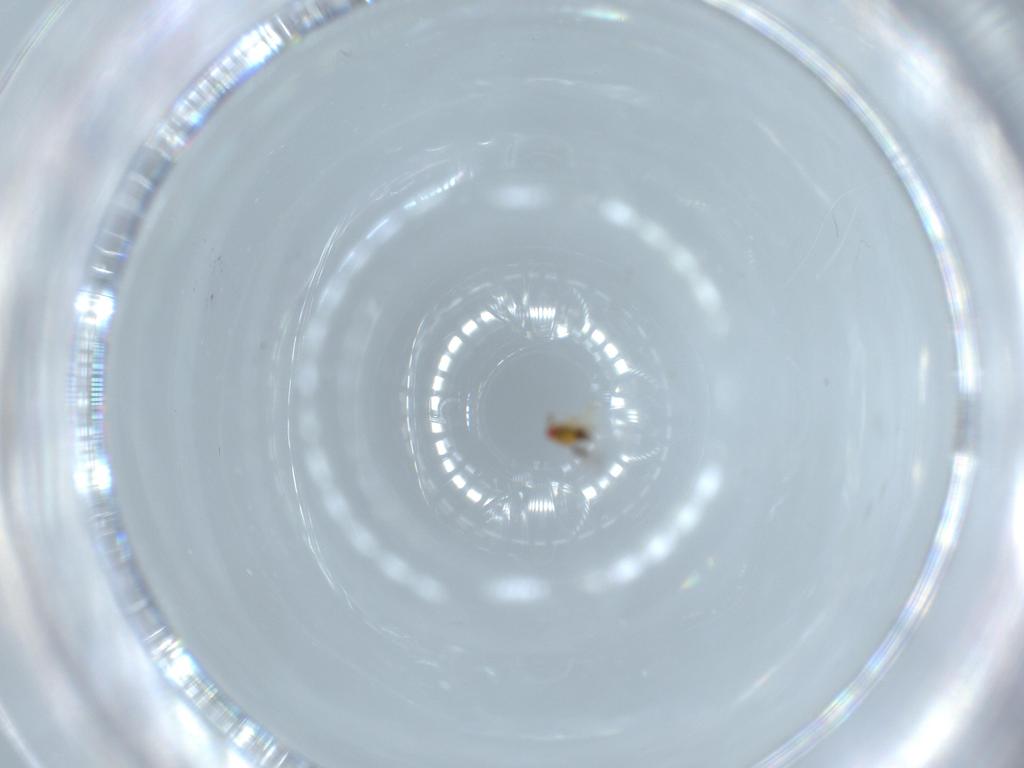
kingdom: Animalia
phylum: Arthropoda
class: Insecta
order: Hymenoptera
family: Trichogrammatidae
